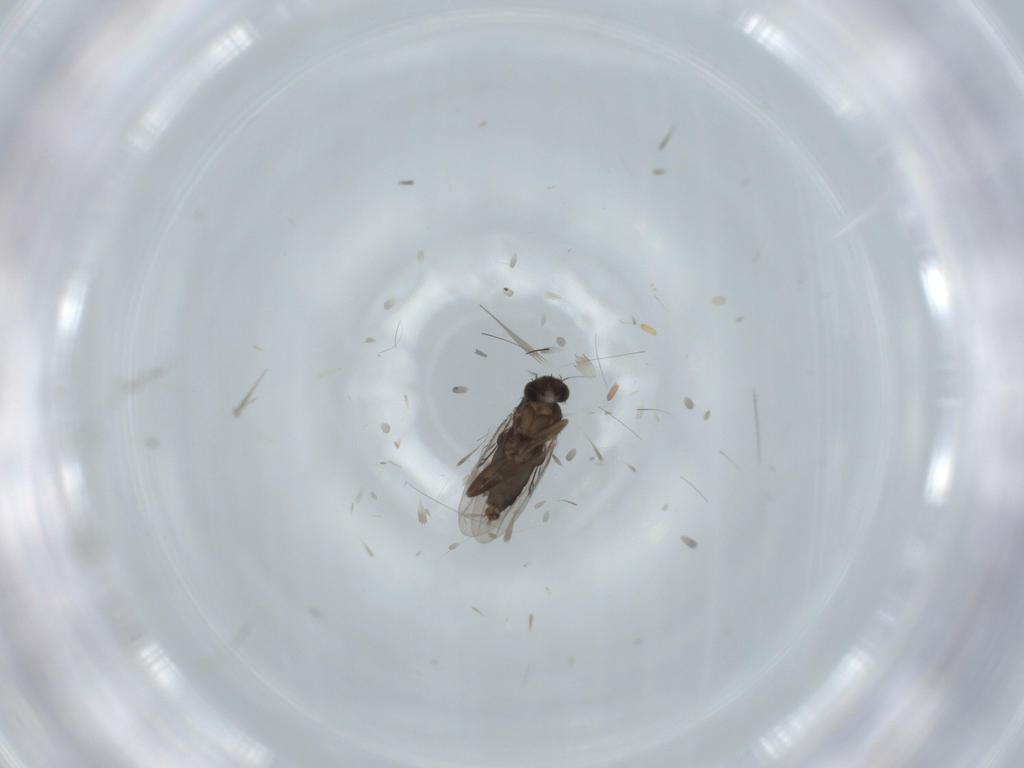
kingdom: Animalia
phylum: Arthropoda
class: Insecta
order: Diptera
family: Phoridae
